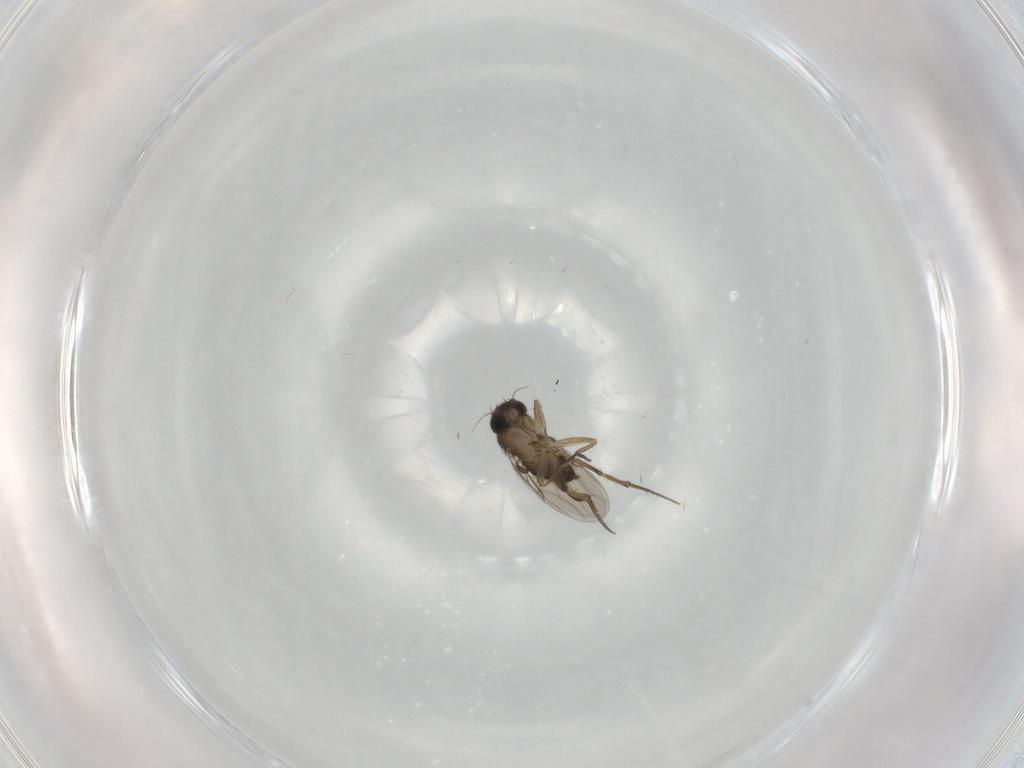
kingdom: Animalia
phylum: Arthropoda
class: Insecta
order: Diptera
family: Phoridae
